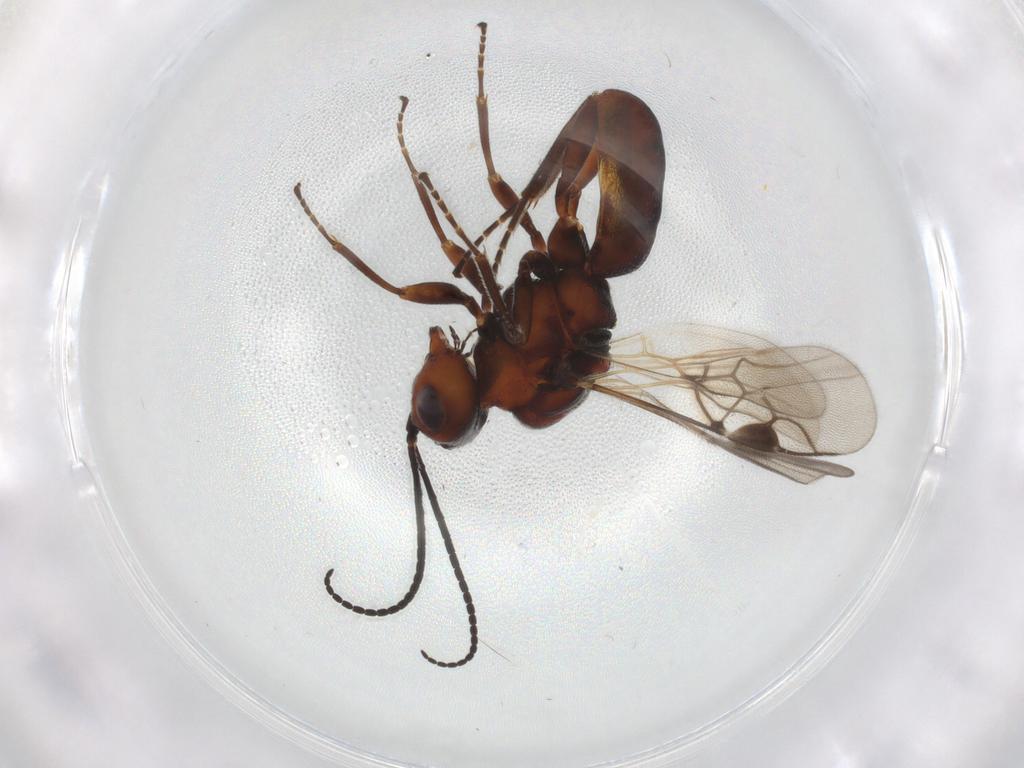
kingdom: Animalia
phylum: Arthropoda
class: Insecta
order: Hymenoptera
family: Braconidae
